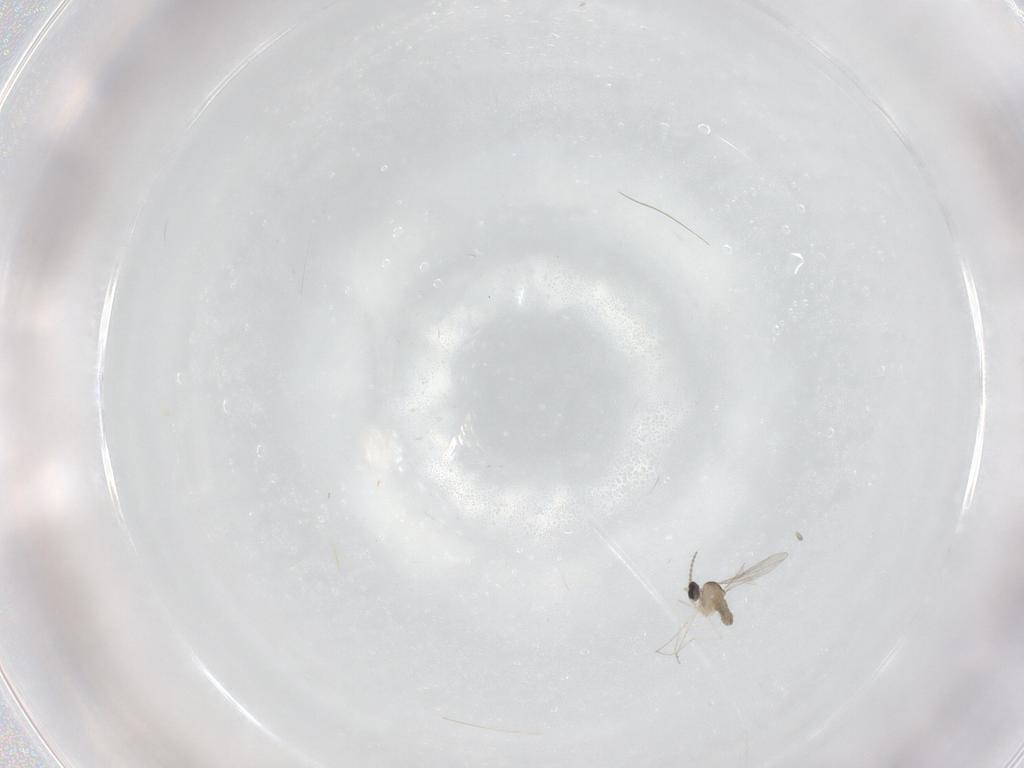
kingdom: Animalia
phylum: Arthropoda
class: Insecta
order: Diptera
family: Cecidomyiidae
